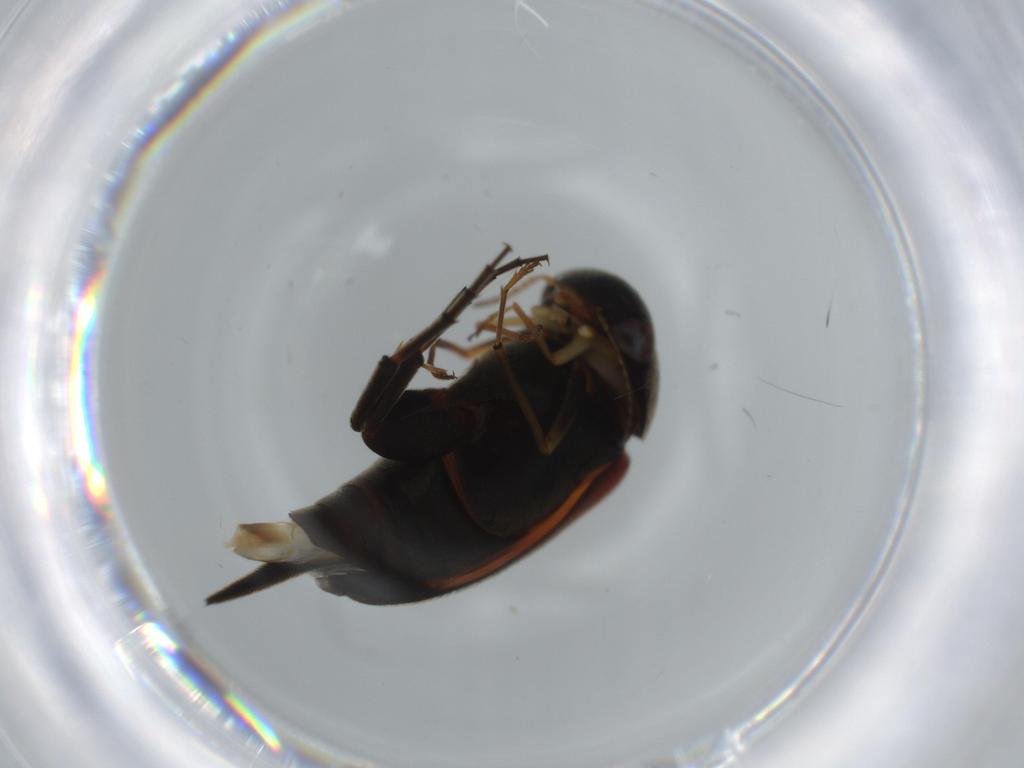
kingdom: Animalia
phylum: Arthropoda
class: Insecta
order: Coleoptera
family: Mordellidae
